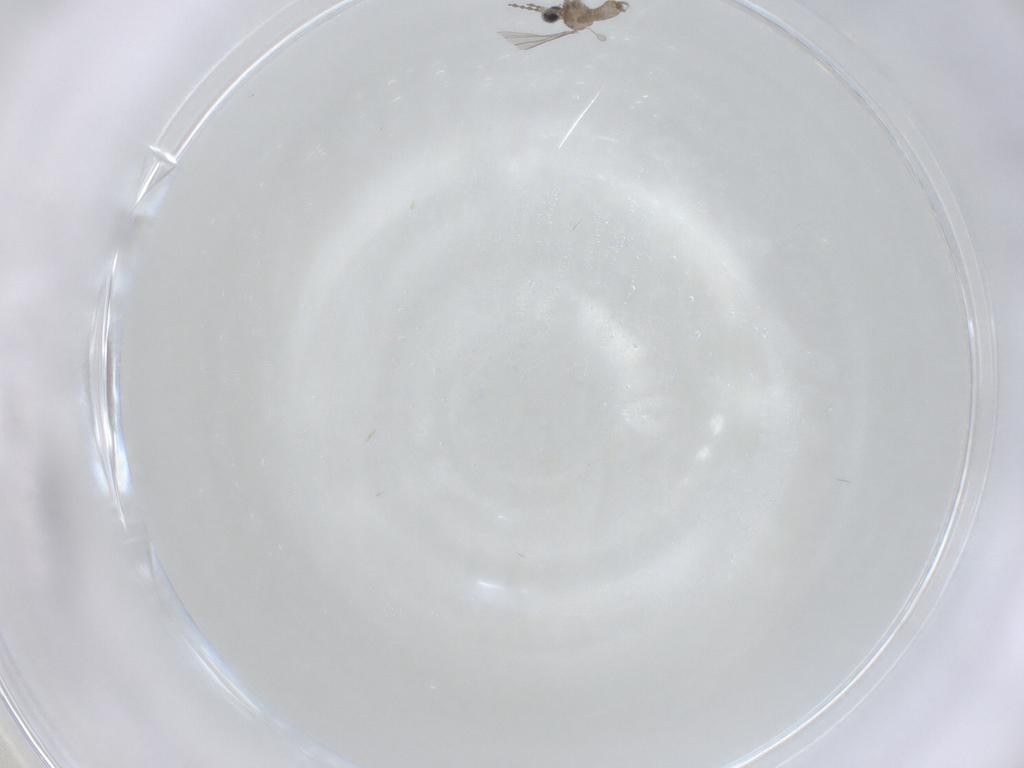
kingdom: Animalia
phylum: Arthropoda
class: Insecta
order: Diptera
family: Cecidomyiidae
